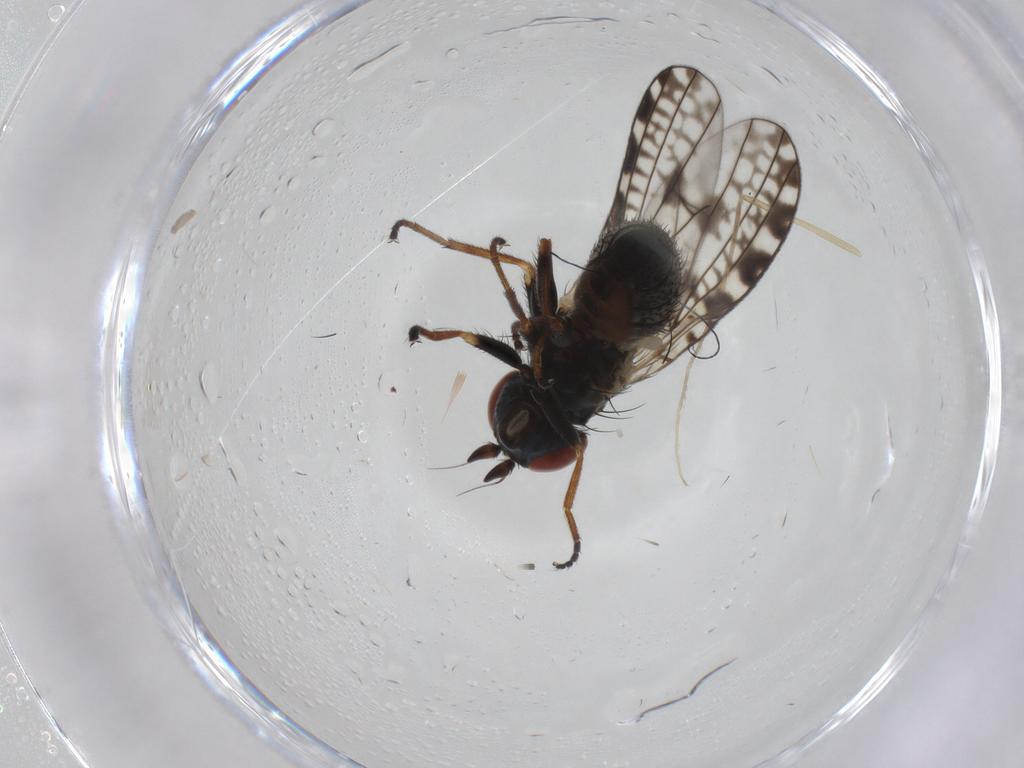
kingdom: Animalia
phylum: Arthropoda
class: Insecta
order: Diptera
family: Chamaemyiidae
